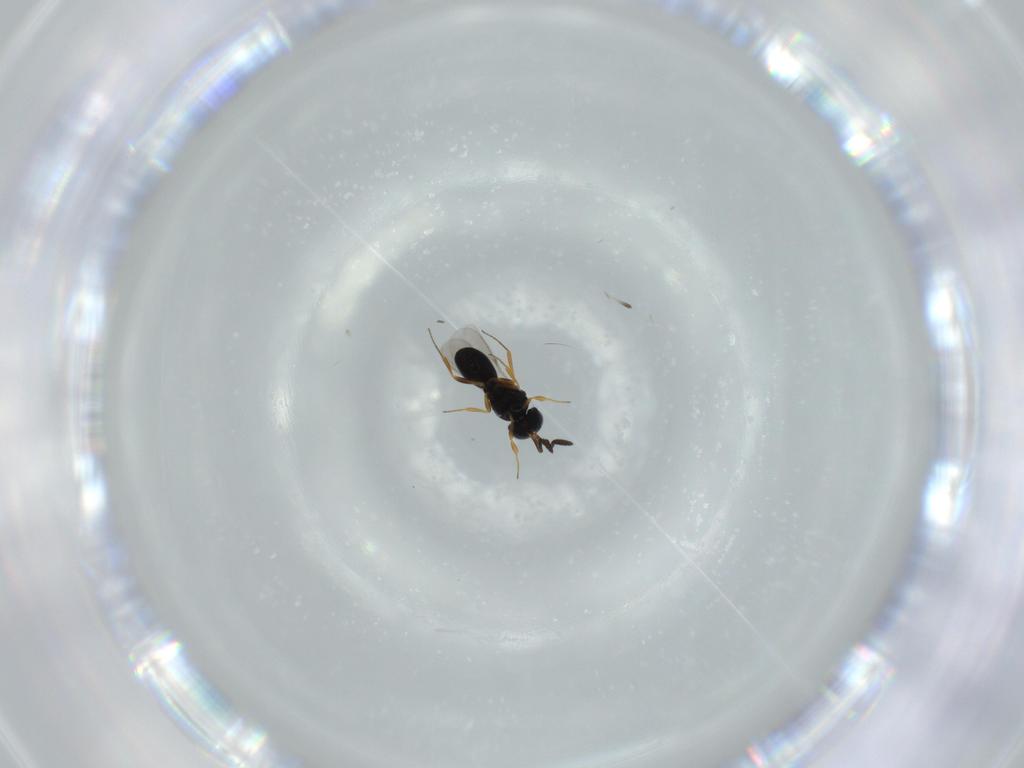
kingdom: Animalia
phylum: Arthropoda
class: Insecta
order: Hymenoptera
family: Scelionidae
